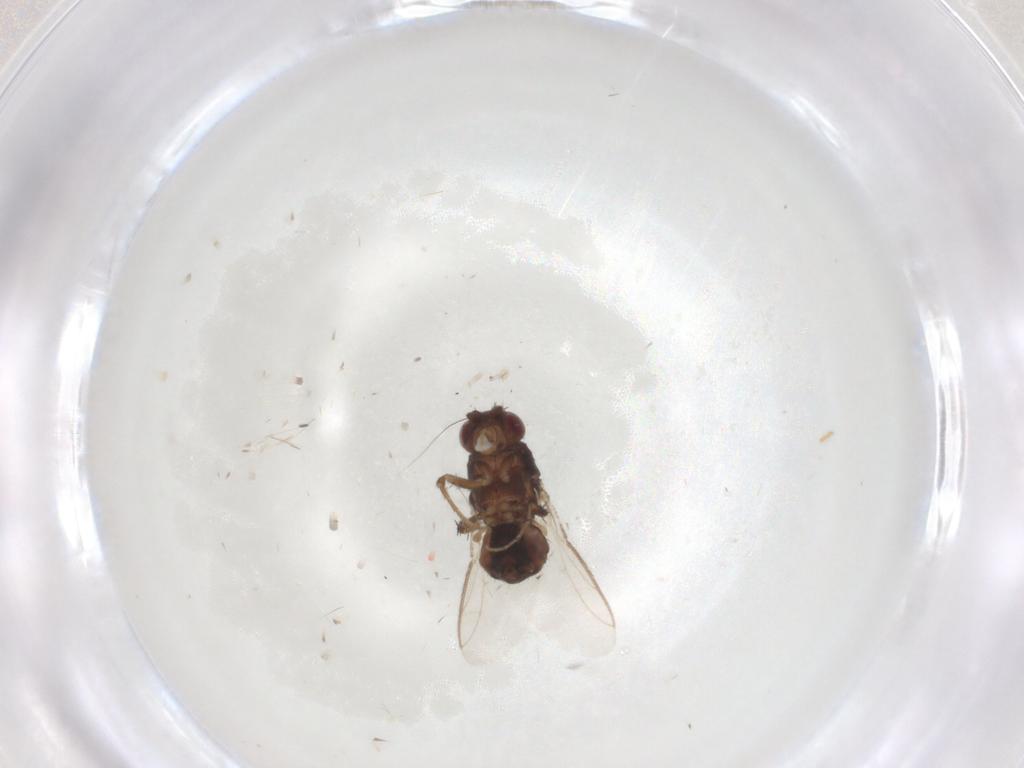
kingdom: Animalia
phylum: Arthropoda
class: Insecta
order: Diptera
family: Sphaeroceridae
